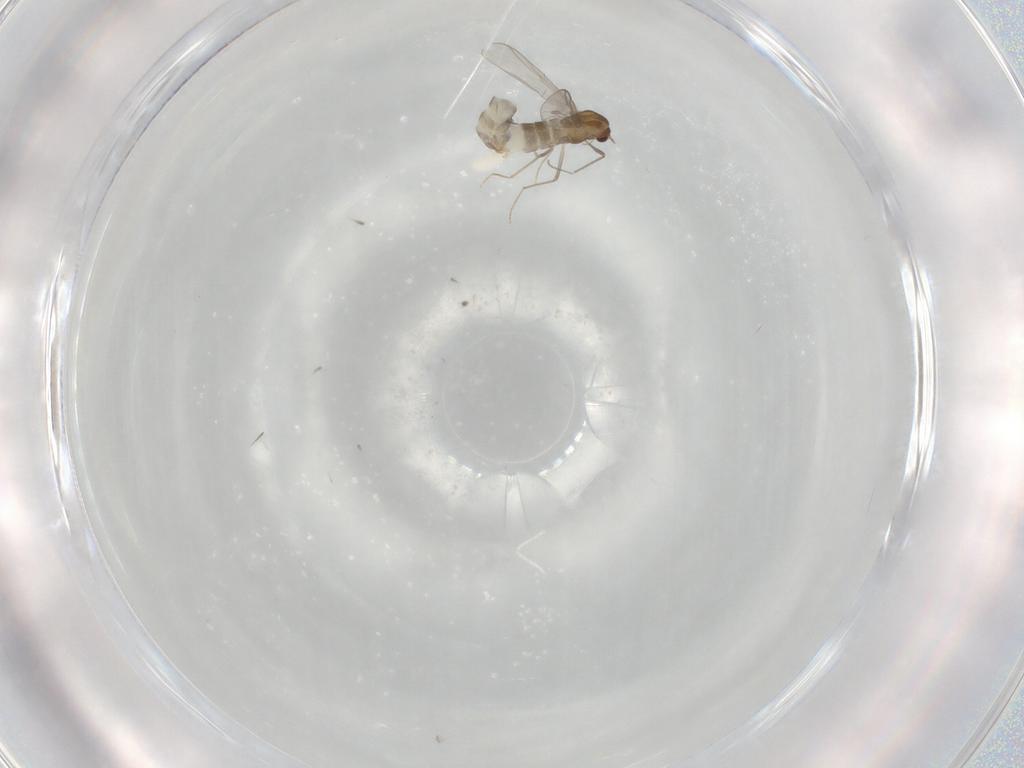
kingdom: Animalia
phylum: Arthropoda
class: Insecta
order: Diptera
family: Chironomidae
